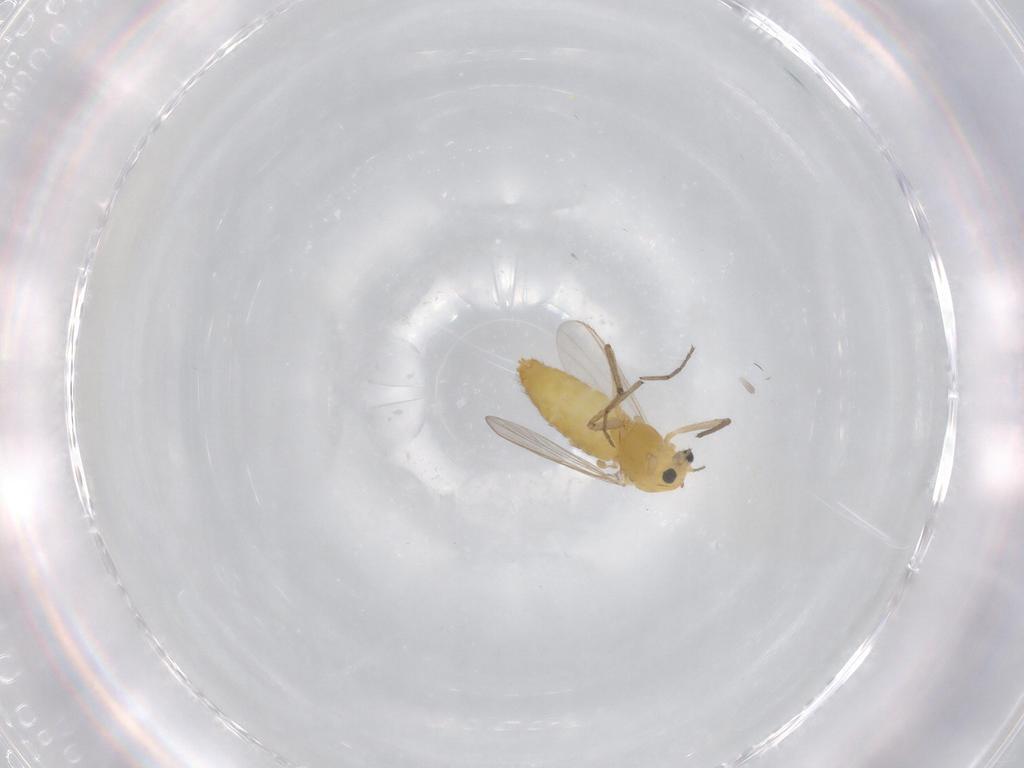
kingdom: Animalia
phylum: Arthropoda
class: Insecta
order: Diptera
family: Chironomidae
